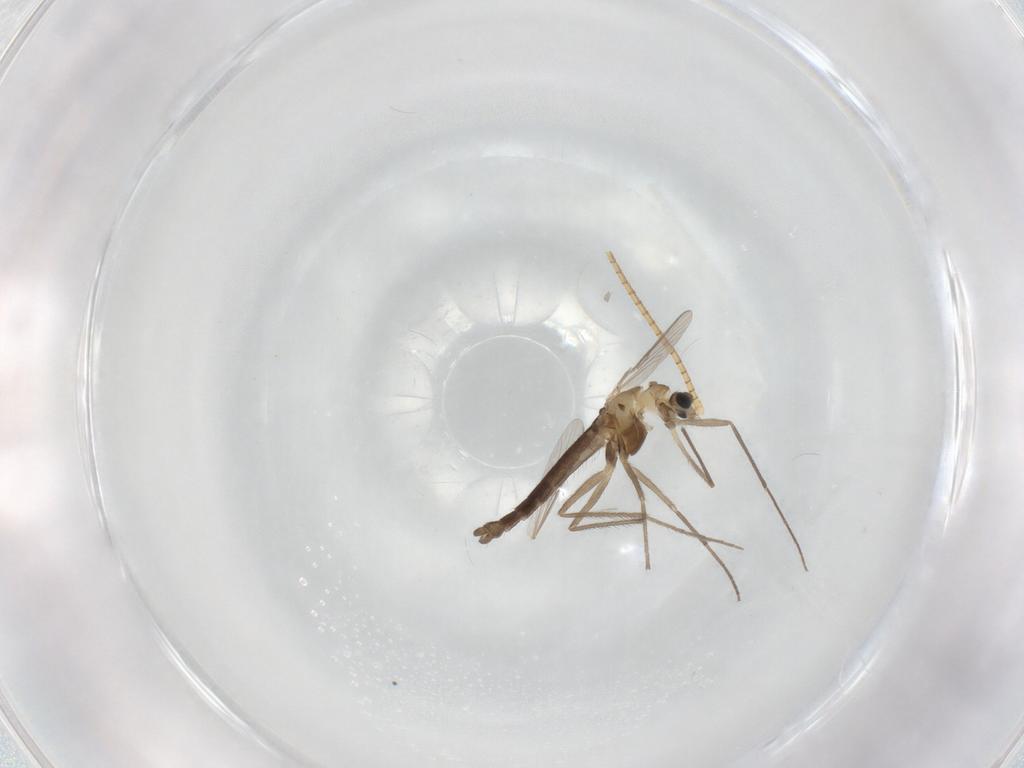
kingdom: Animalia
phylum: Arthropoda
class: Insecta
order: Diptera
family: Chironomidae
